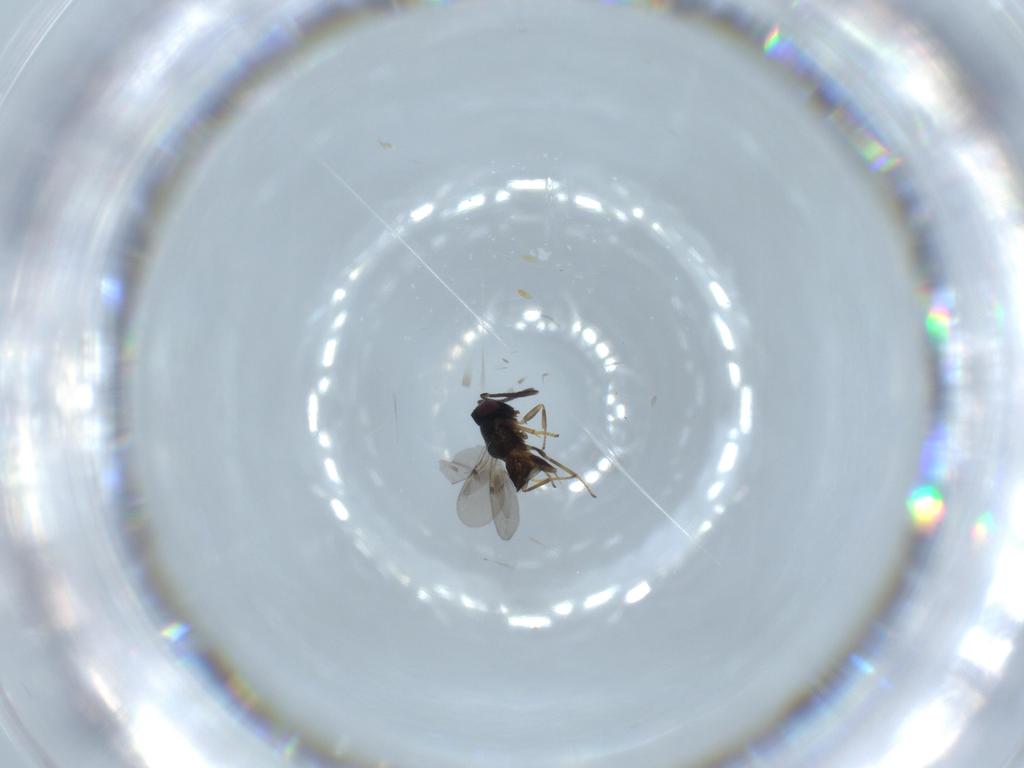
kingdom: Animalia
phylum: Arthropoda
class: Insecta
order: Hymenoptera
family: Encyrtidae
